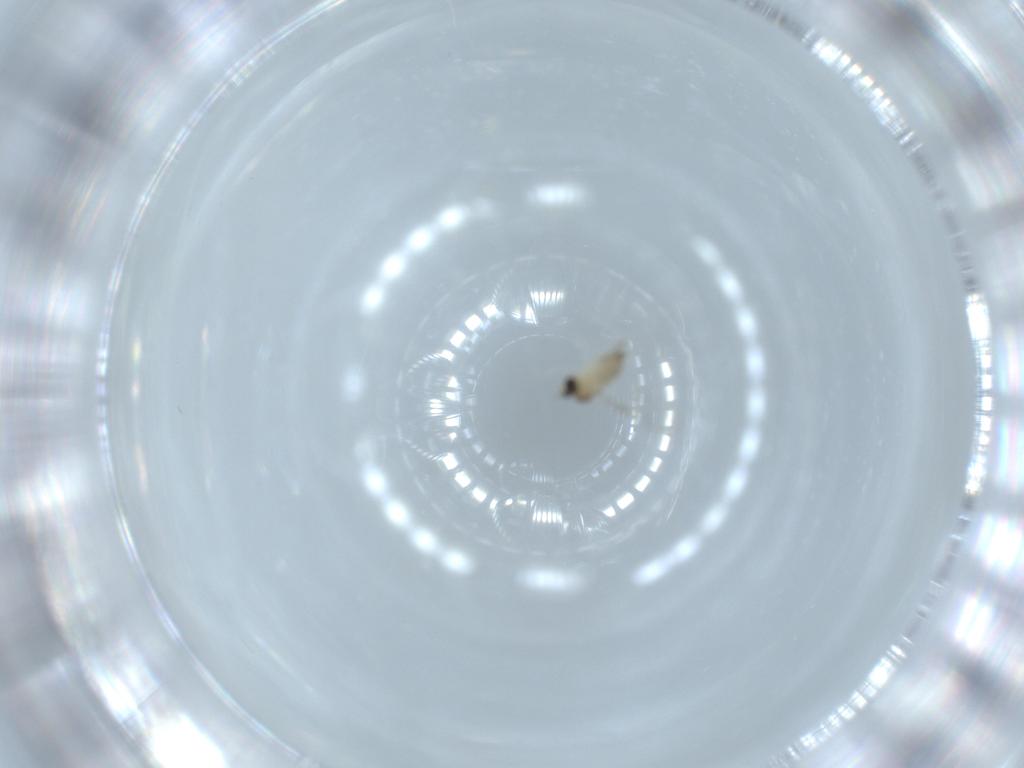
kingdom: Animalia
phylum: Arthropoda
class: Insecta
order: Diptera
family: Cecidomyiidae
